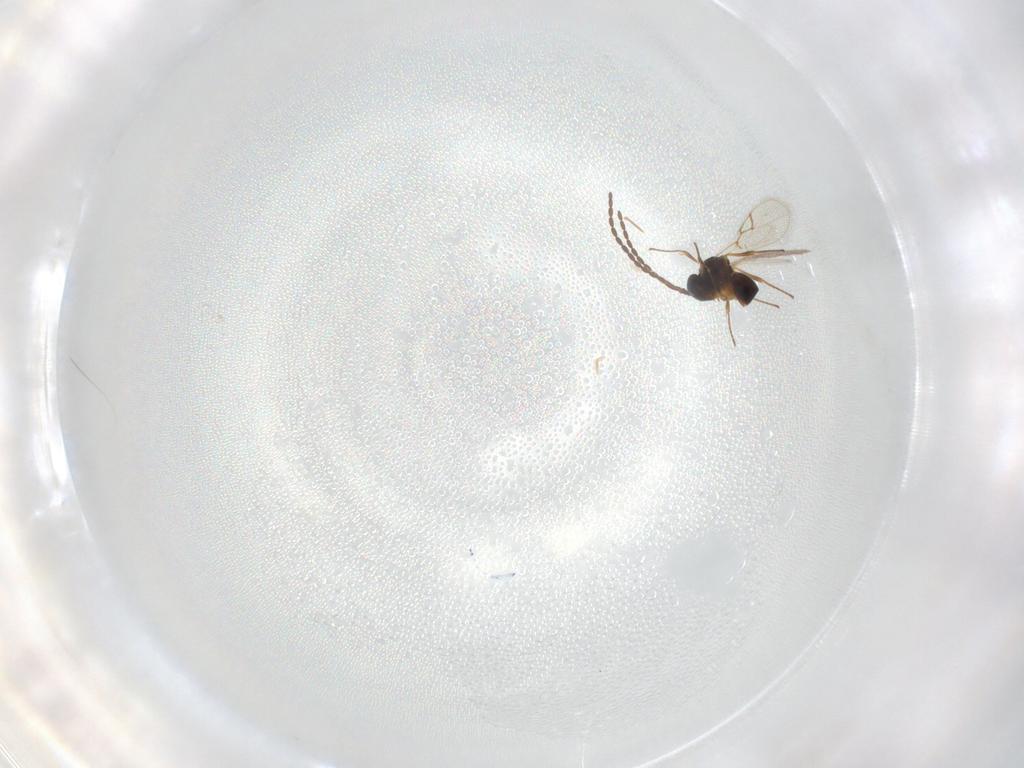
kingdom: Animalia
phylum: Arthropoda
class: Insecta
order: Hymenoptera
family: Figitidae
